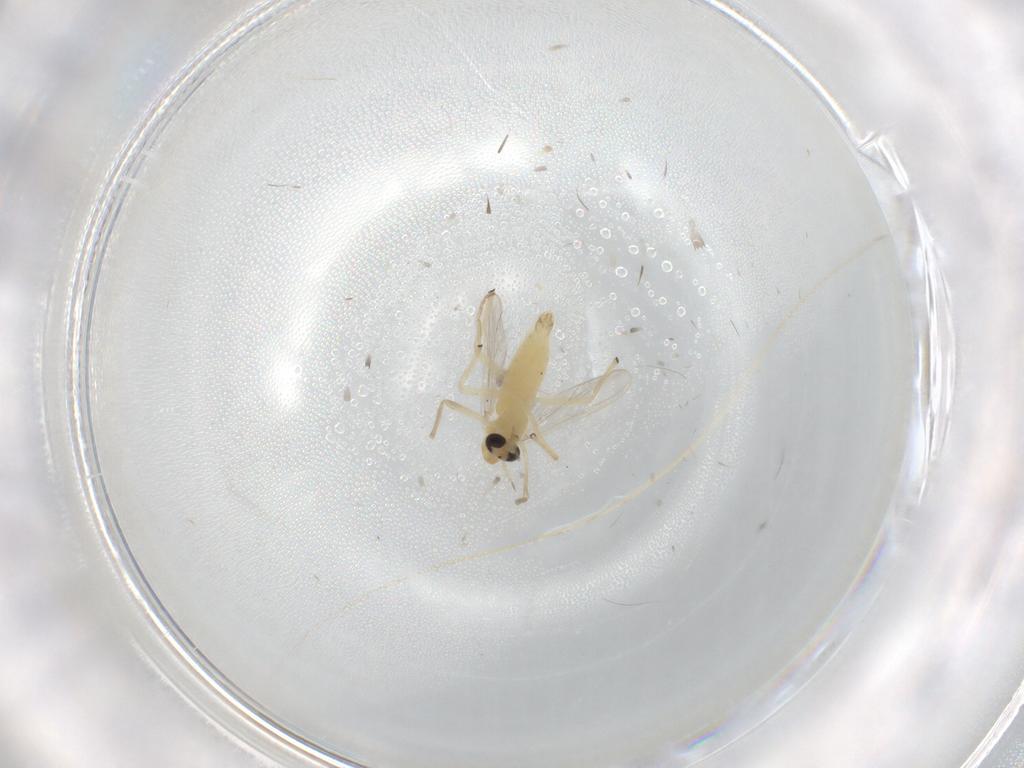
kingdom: Animalia
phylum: Arthropoda
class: Insecta
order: Diptera
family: Chironomidae
